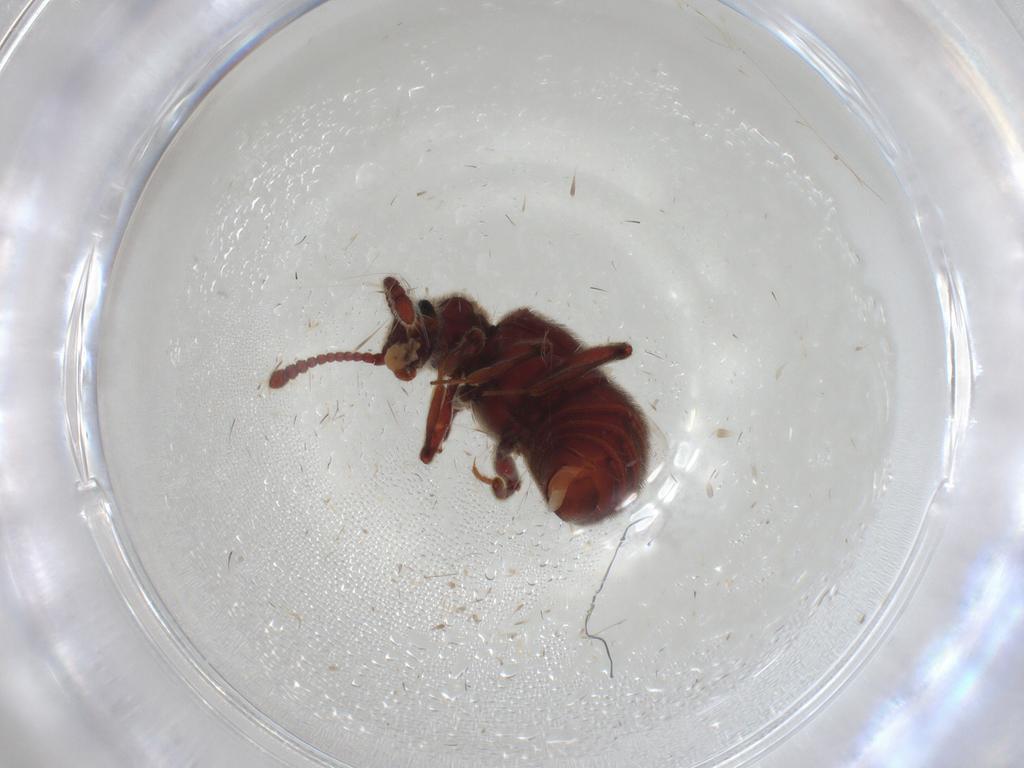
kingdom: Animalia
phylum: Arthropoda
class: Insecta
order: Coleoptera
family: Staphylinidae
